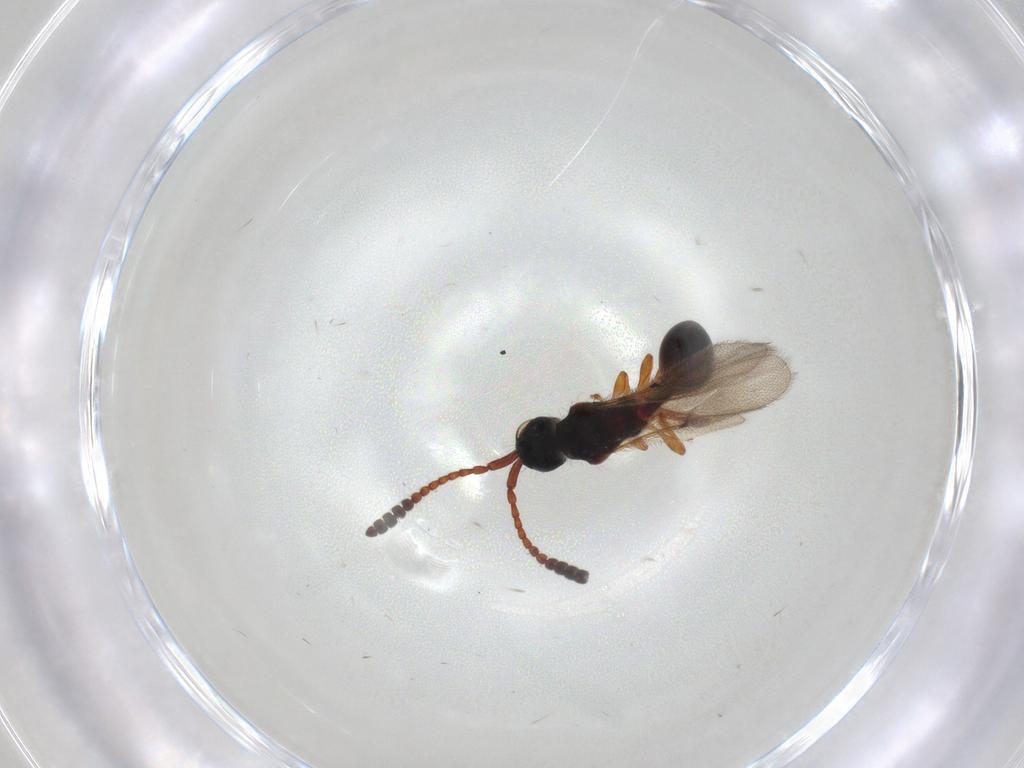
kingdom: Animalia
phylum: Arthropoda
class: Insecta
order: Hymenoptera
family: Diapriidae
